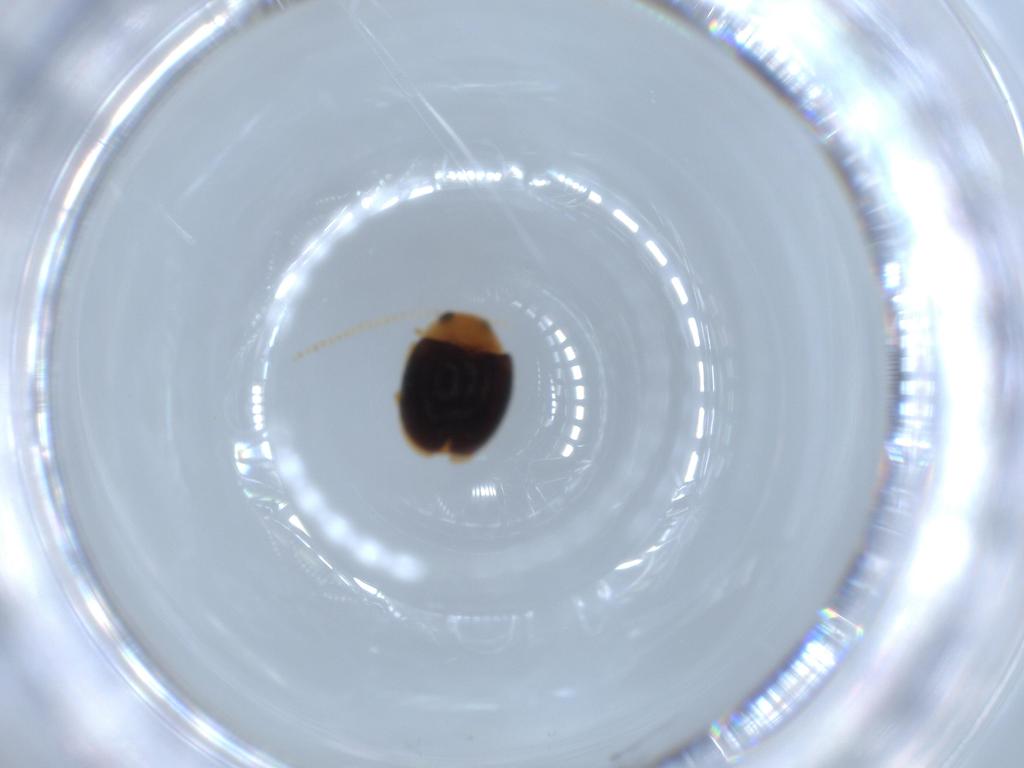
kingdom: Animalia
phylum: Arthropoda
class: Insecta
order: Coleoptera
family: Coccinellidae
